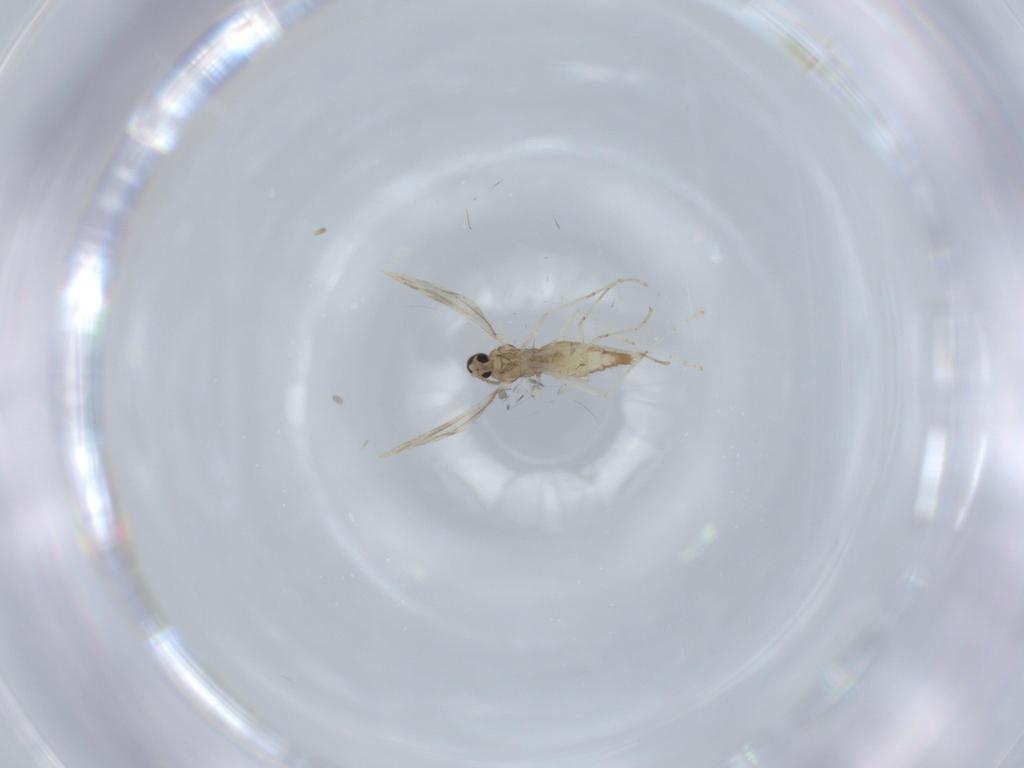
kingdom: Animalia
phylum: Arthropoda
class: Insecta
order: Diptera
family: Cecidomyiidae
